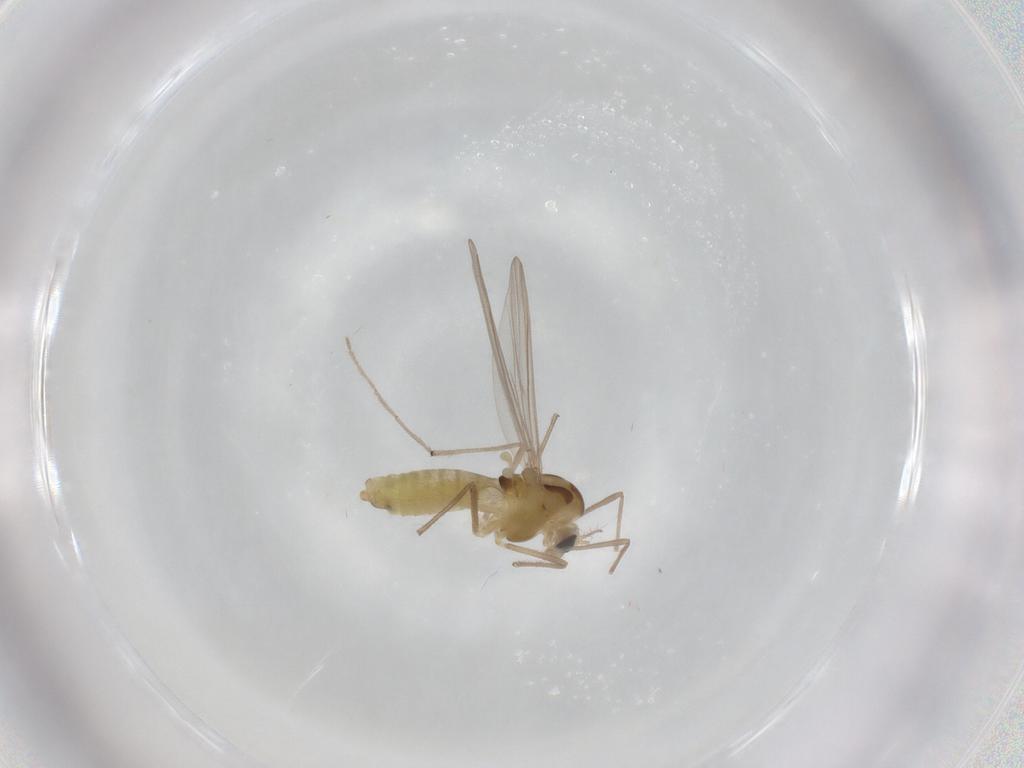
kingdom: Animalia
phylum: Arthropoda
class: Insecta
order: Diptera
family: Chironomidae
